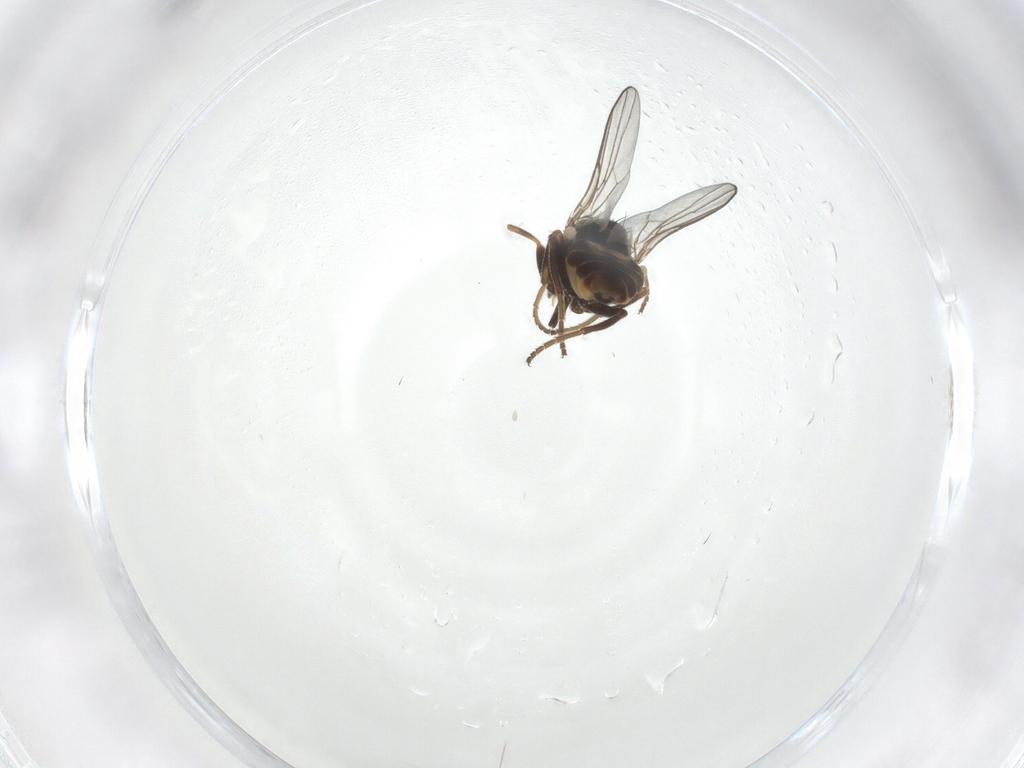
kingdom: Animalia
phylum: Arthropoda
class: Insecta
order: Diptera
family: Chloropidae
